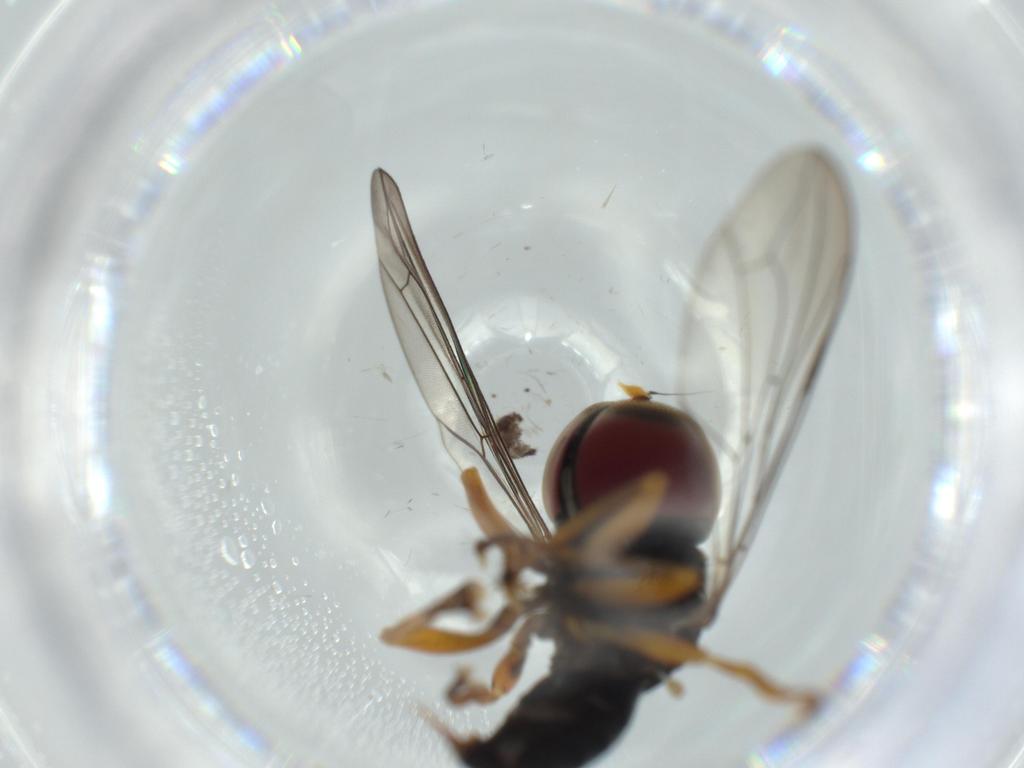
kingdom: Animalia
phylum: Arthropoda
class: Insecta
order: Diptera
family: Pipunculidae
